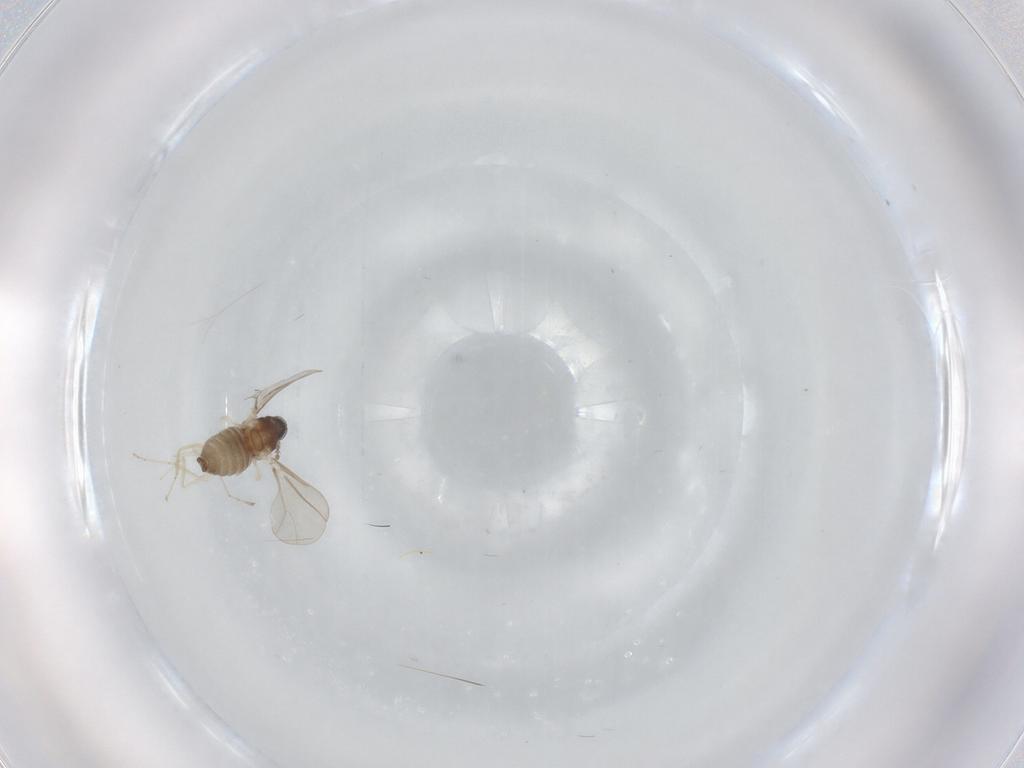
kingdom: Animalia
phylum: Arthropoda
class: Insecta
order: Diptera
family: Cecidomyiidae
